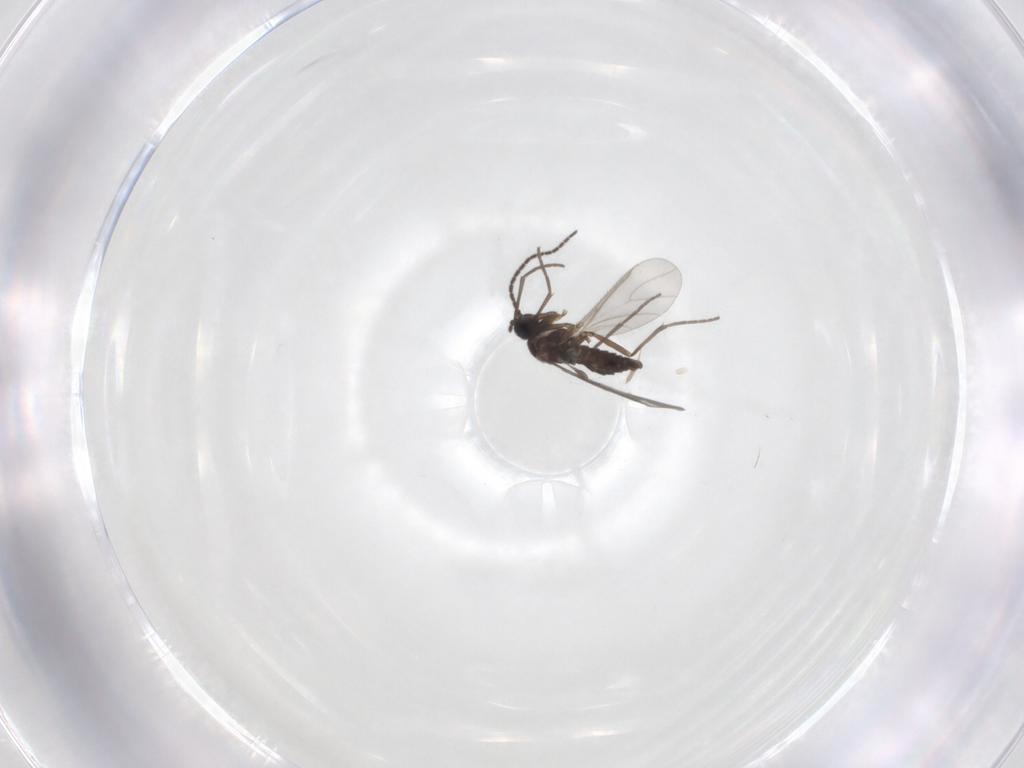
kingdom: Animalia
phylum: Arthropoda
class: Insecta
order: Diptera
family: Sciaridae
